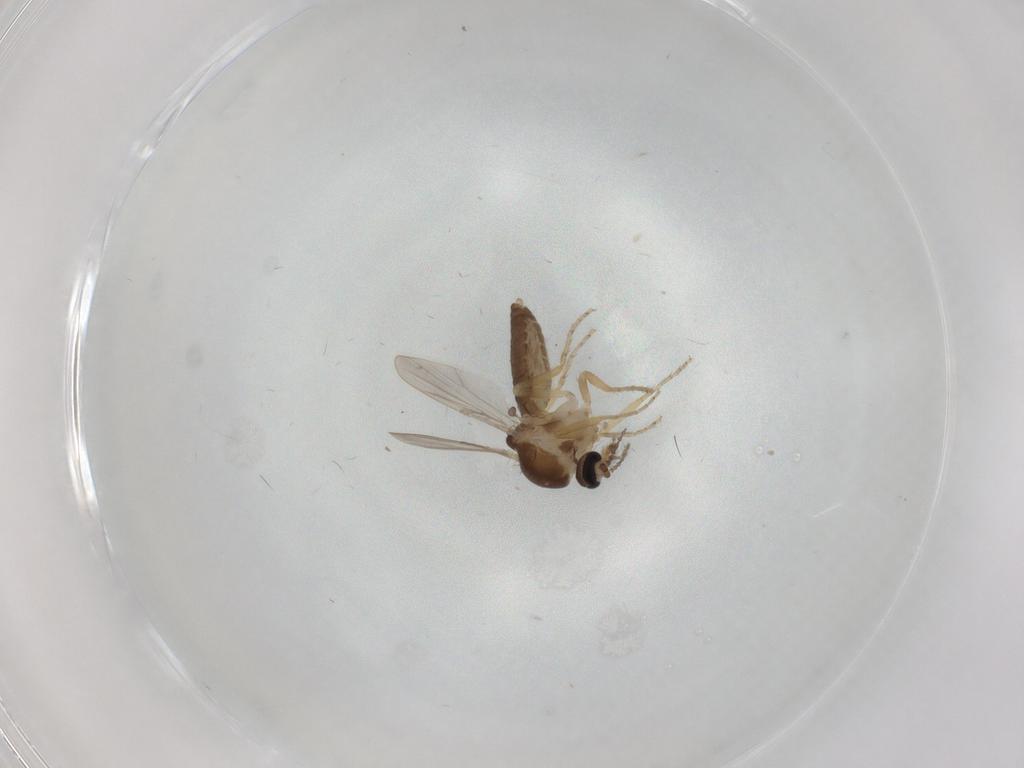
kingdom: Animalia
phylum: Arthropoda
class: Insecta
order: Diptera
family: Ceratopogonidae
